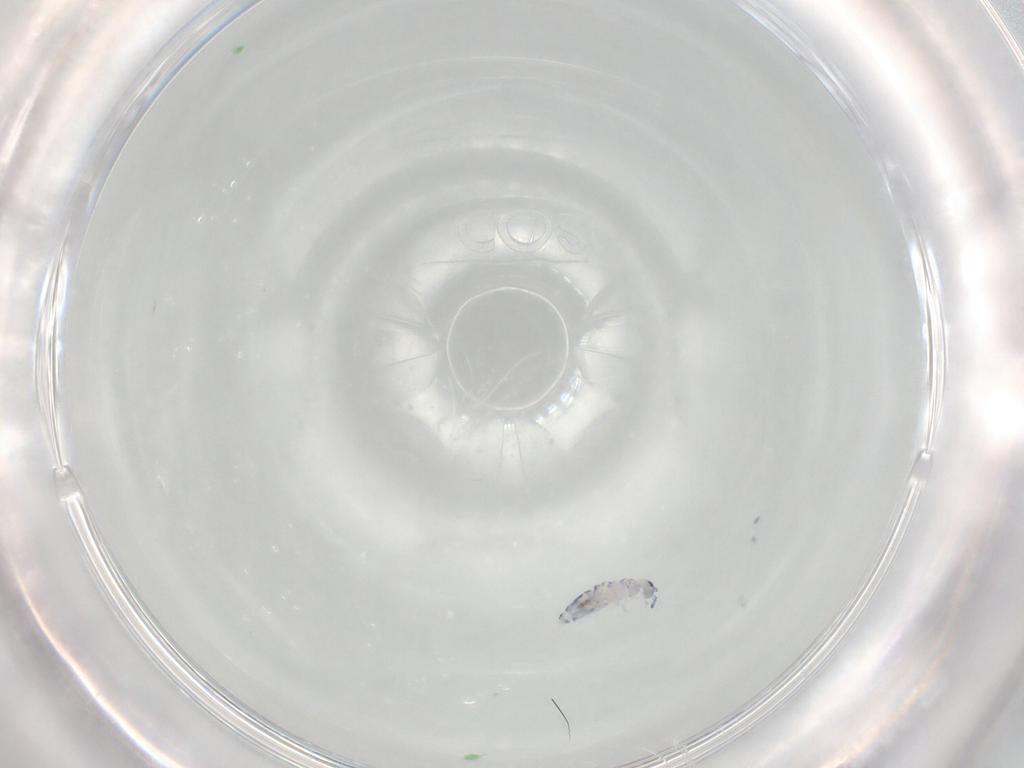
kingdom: Animalia
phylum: Arthropoda
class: Collembola
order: Entomobryomorpha
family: Entomobryidae
